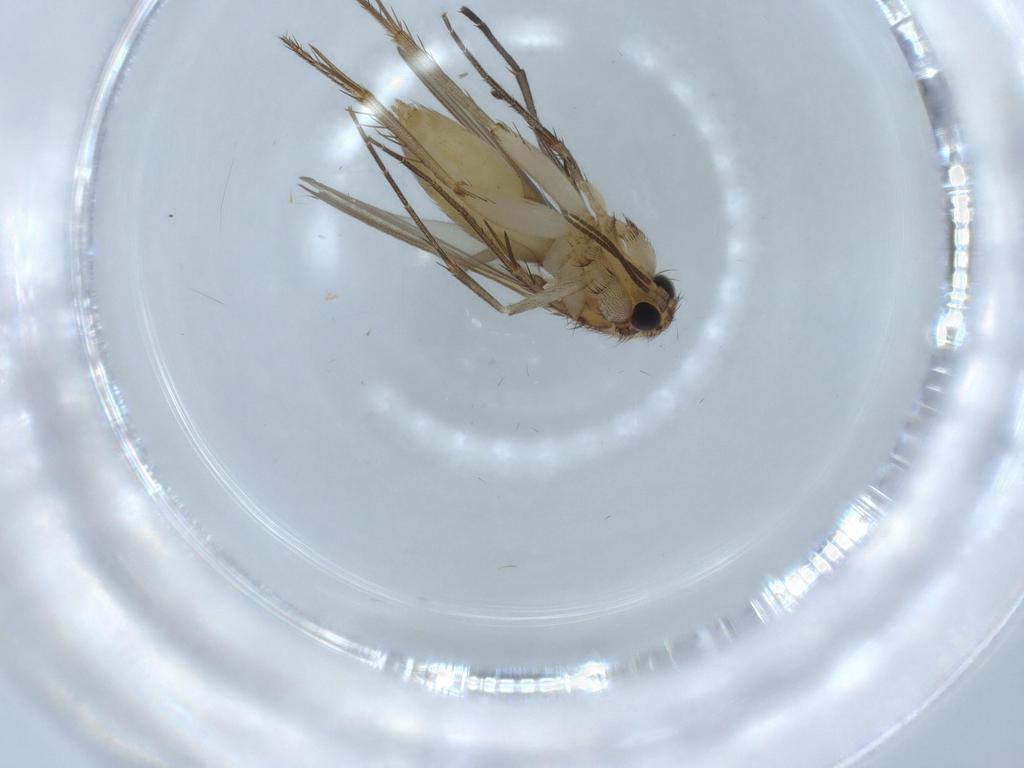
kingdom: Animalia
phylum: Arthropoda
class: Insecta
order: Diptera
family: Mycetophilidae
